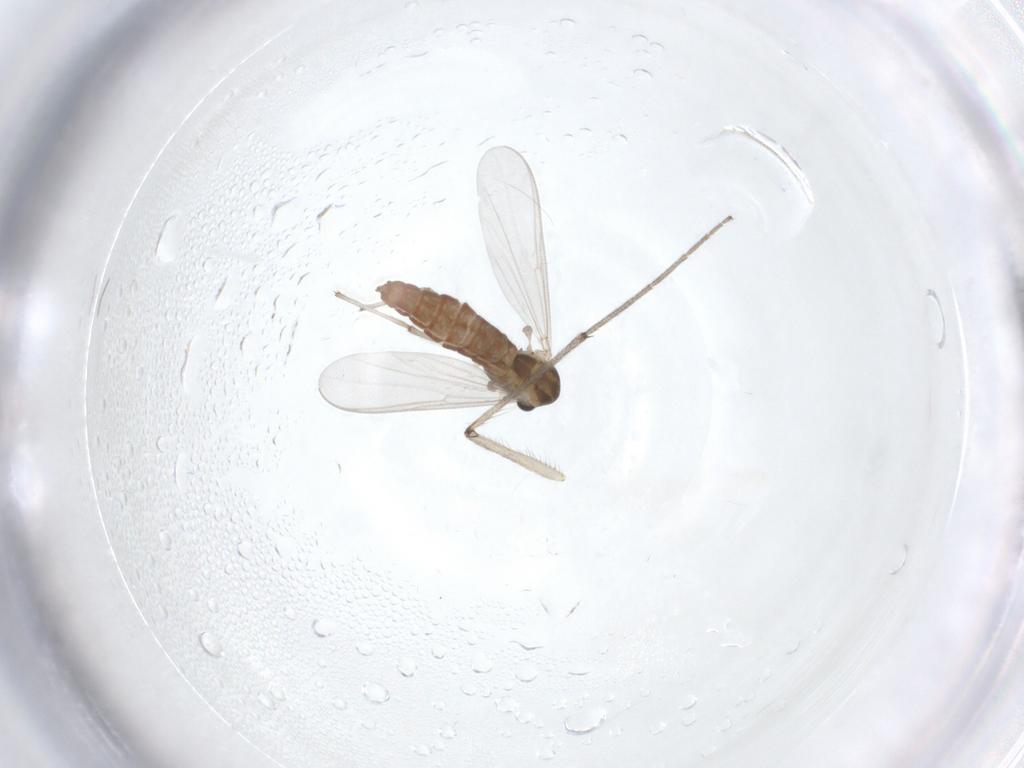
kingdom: Animalia
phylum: Arthropoda
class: Insecta
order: Diptera
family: Chironomidae
